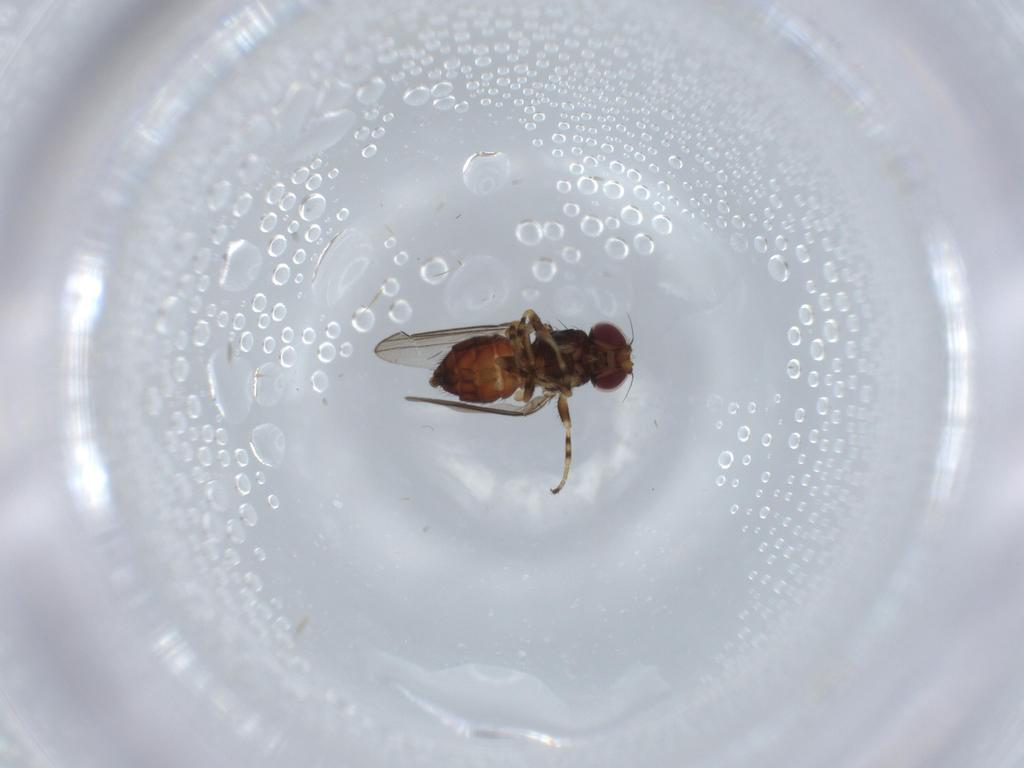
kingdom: Animalia
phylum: Arthropoda
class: Insecta
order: Diptera
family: Chloropidae
